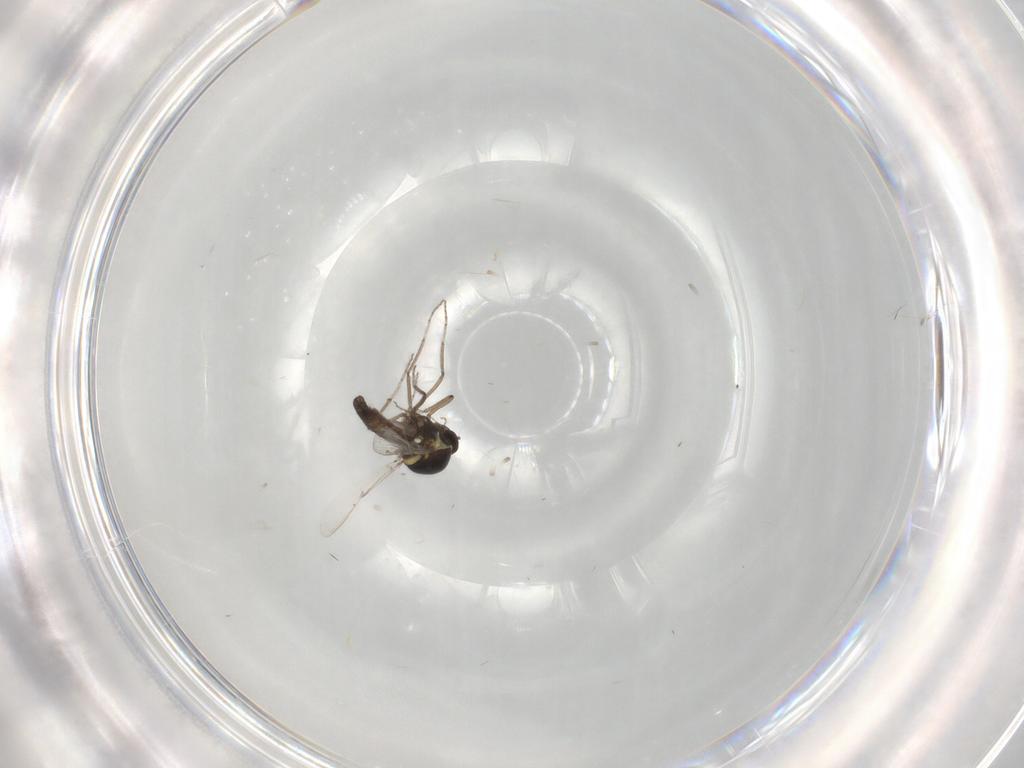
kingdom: Animalia
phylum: Arthropoda
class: Insecta
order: Diptera
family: Ceratopogonidae
